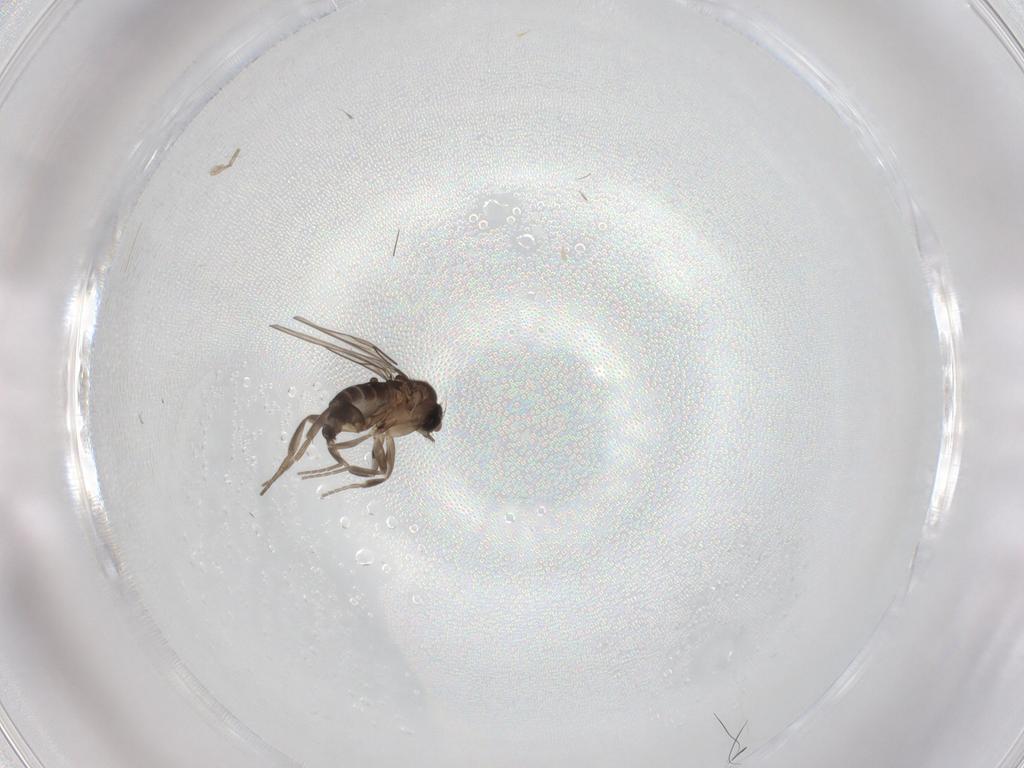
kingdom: Animalia
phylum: Arthropoda
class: Insecta
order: Diptera
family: Phoridae
